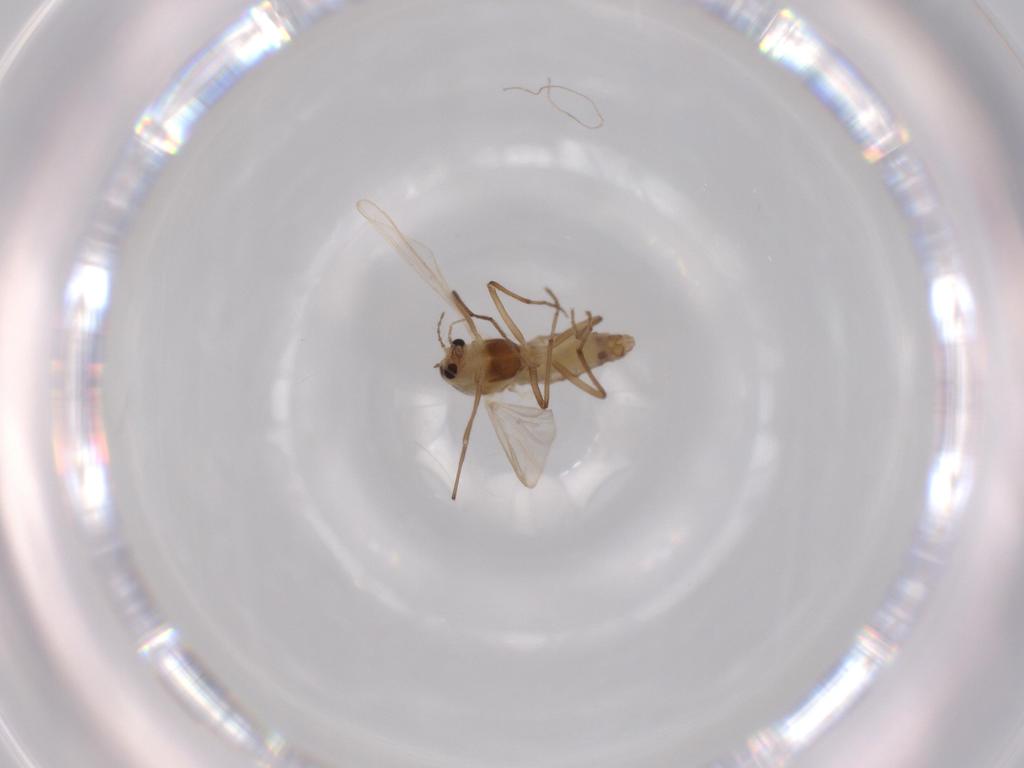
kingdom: Animalia
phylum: Arthropoda
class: Insecta
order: Diptera
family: Chironomidae
